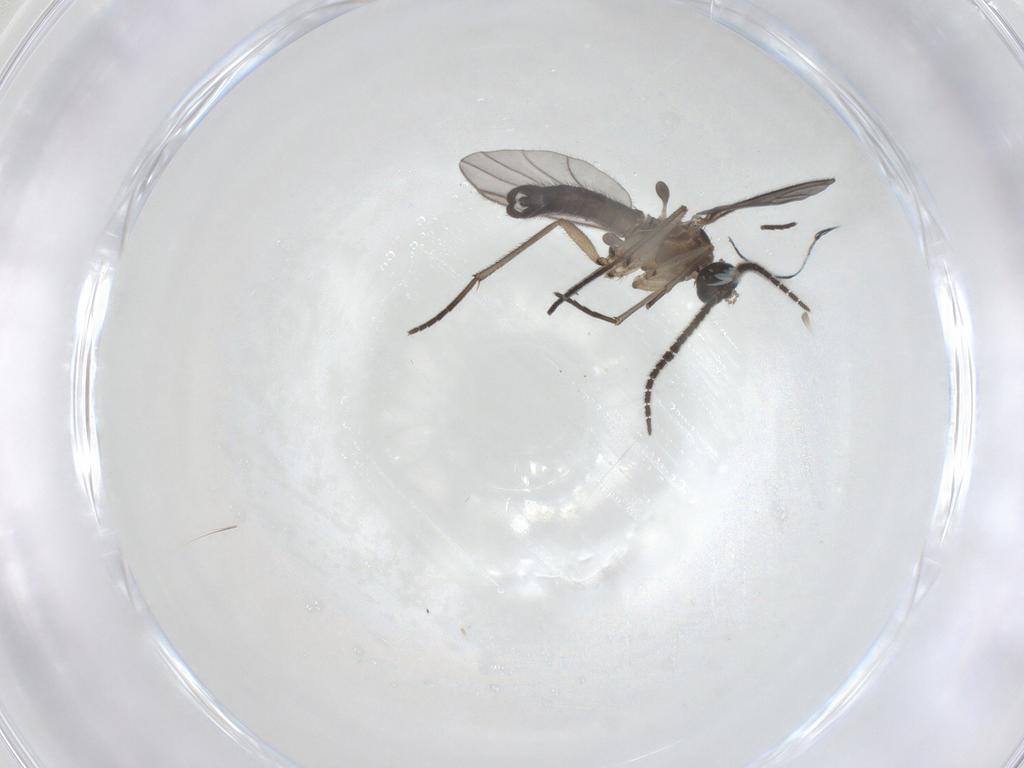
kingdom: Animalia
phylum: Arthropoda
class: Insecta
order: Diptera
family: Sciaridae
